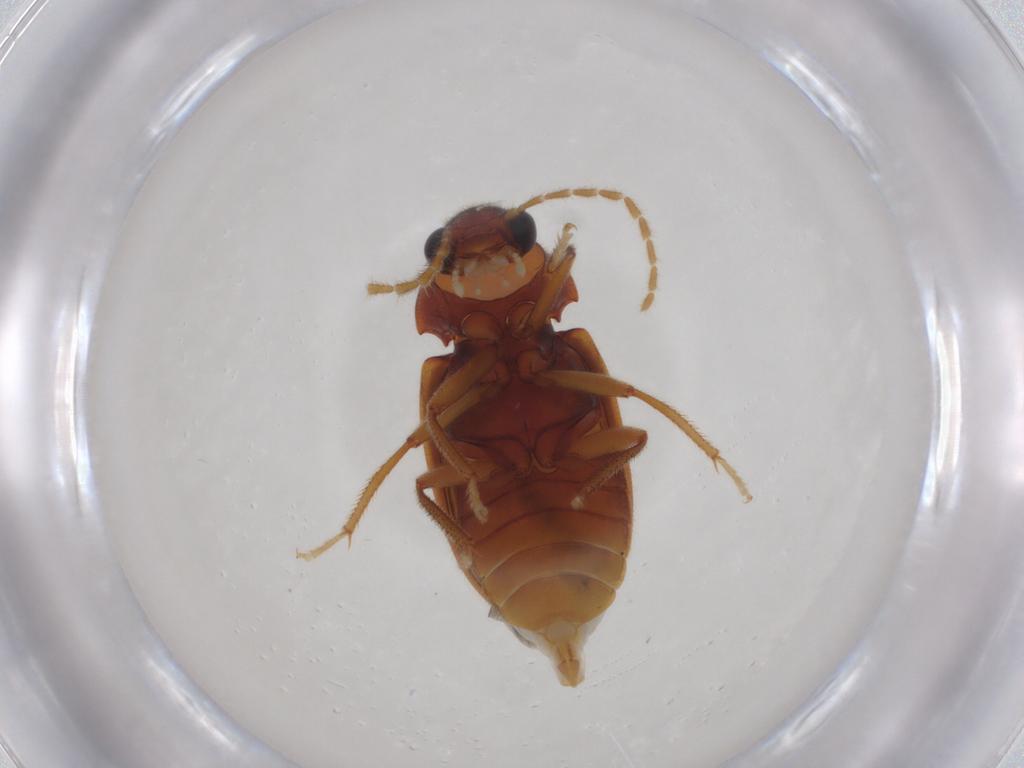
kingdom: Animalia
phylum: Arthropoda
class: Insecta
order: Coleoptera
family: Ptilodactylidae
